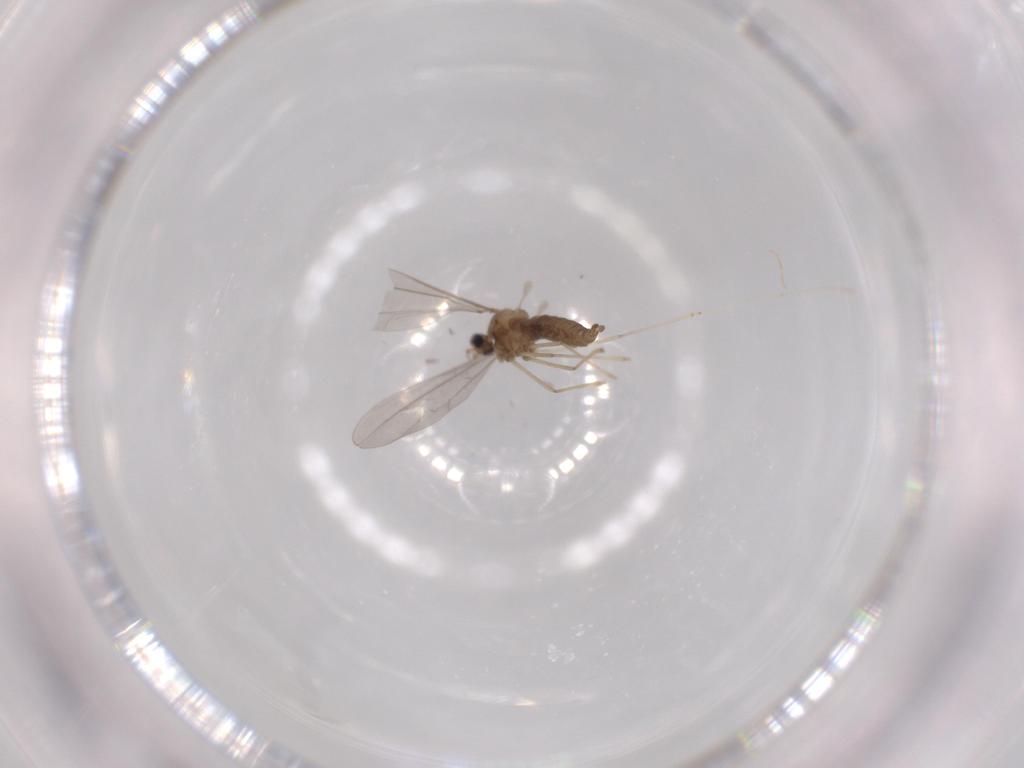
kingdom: Animalia
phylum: Arthropoda
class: Insecta
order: Diptera
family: Cecidomyiidae
